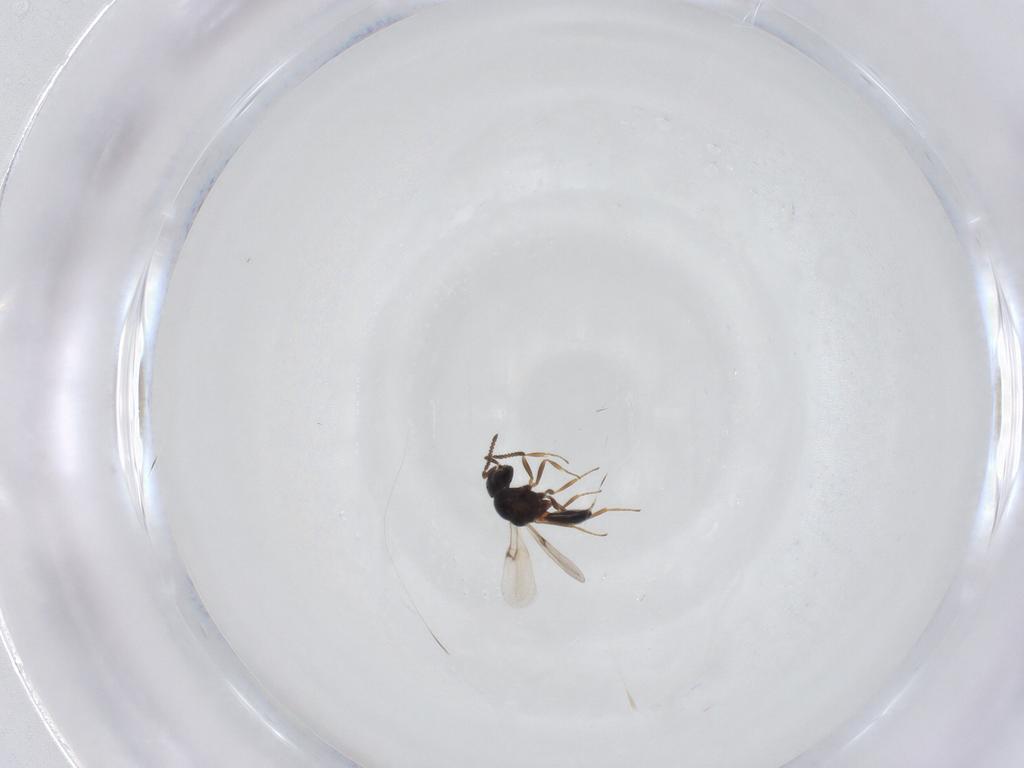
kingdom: Animalia
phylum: Arthropoda
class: Arachnida
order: Araneae
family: Pholcidae
